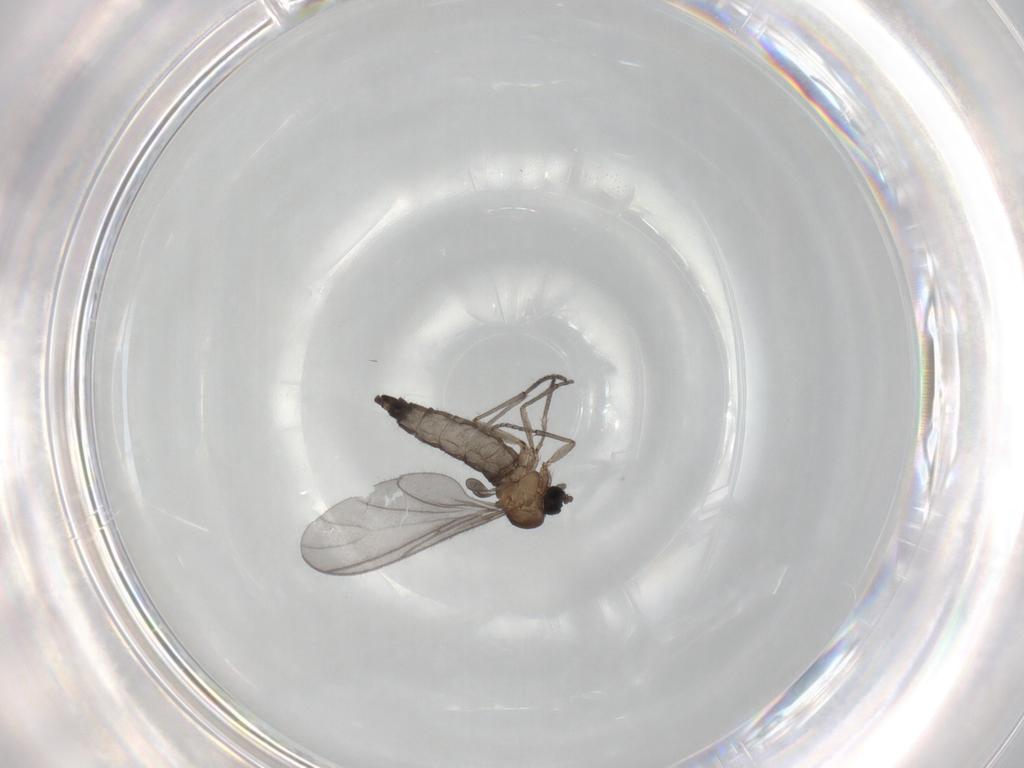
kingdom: Animalia
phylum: Arthropoda
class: Insecta
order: Diptera
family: Sciaridae
